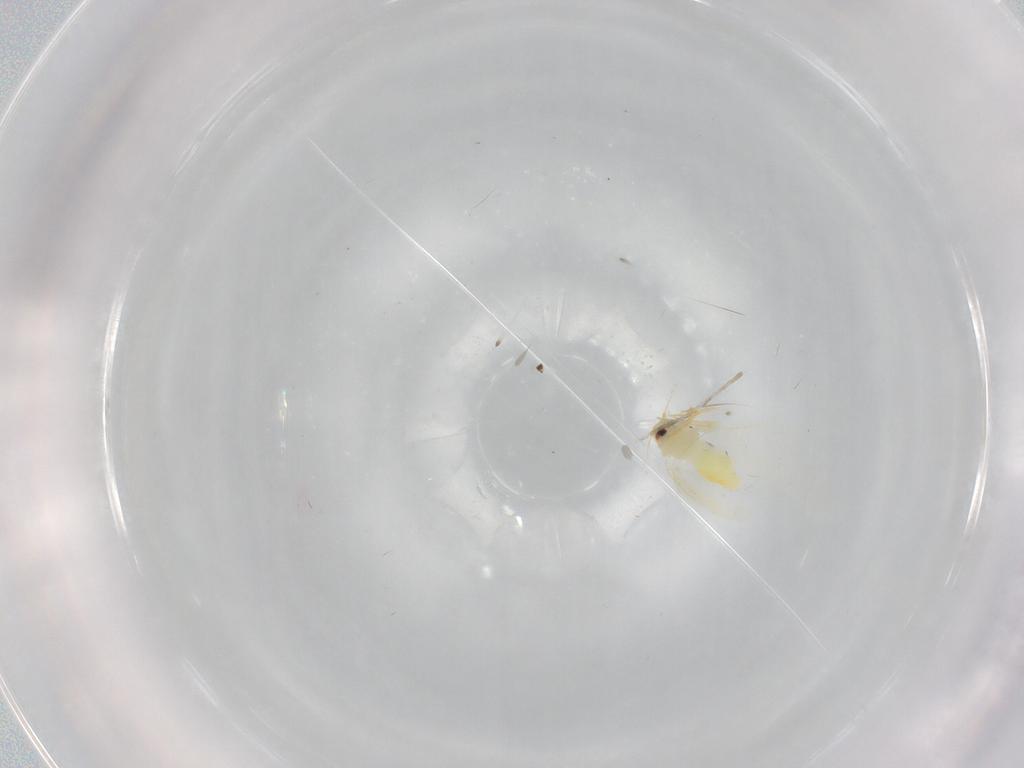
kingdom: Animalia
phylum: Arthropoda
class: Insecta
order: Hemiptera
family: Aleyrodidae
